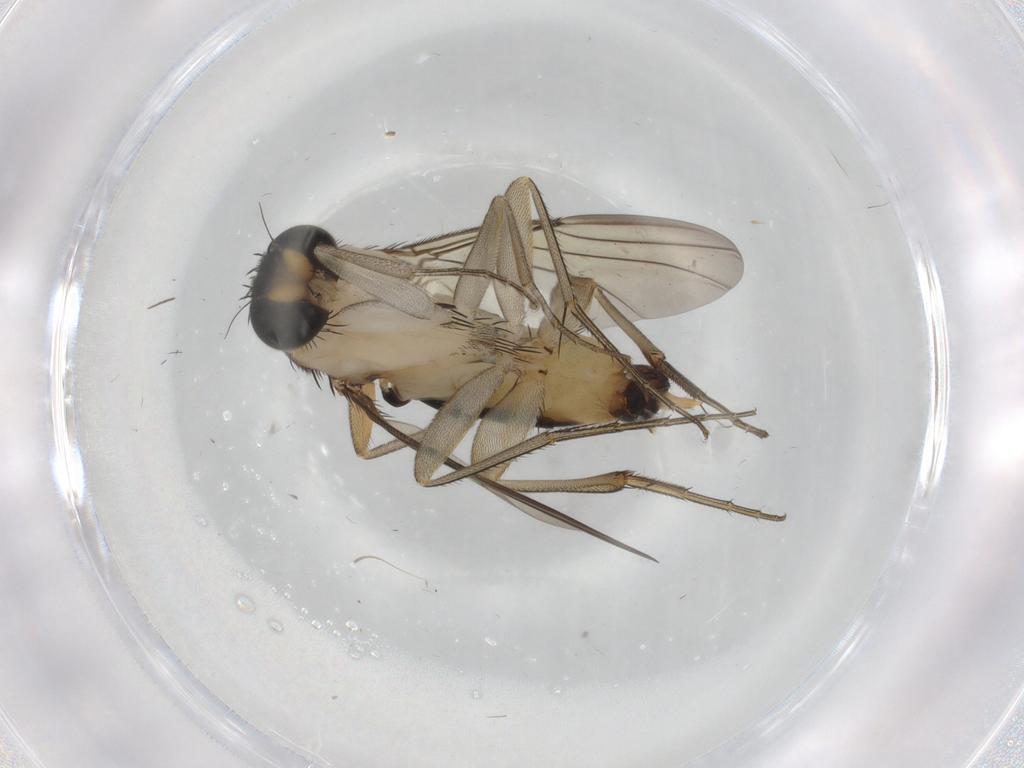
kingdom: Animalia
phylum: Arthropoda
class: Insecta
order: Diptera
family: Phoridae
